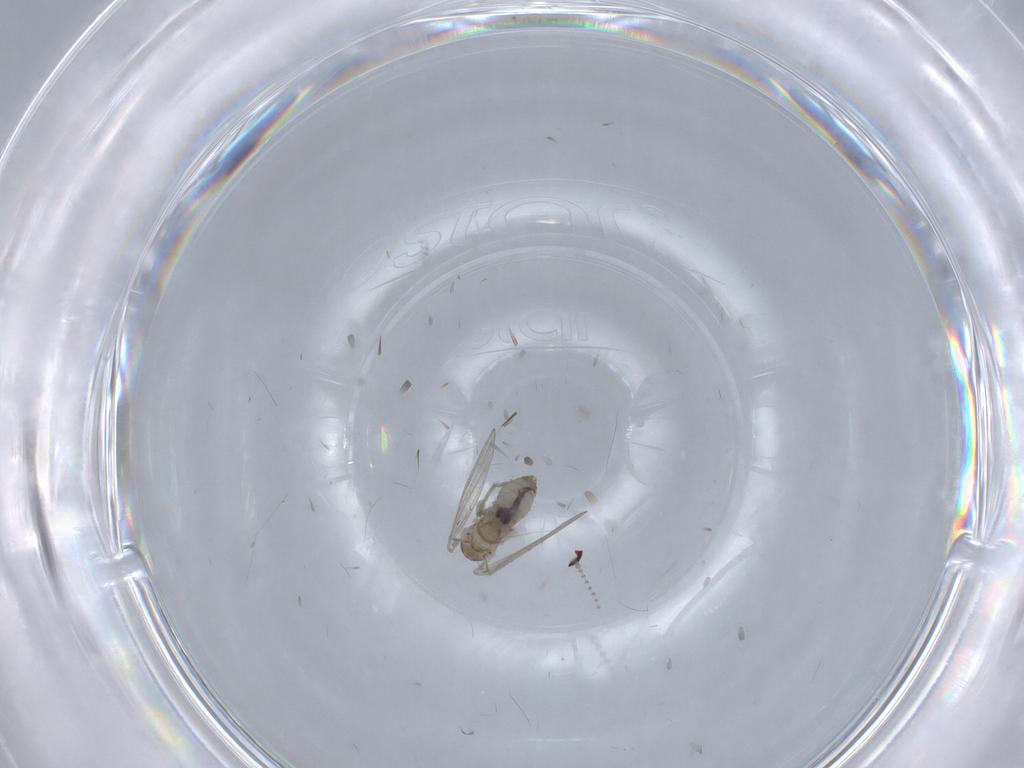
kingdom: Animalia
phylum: Arthropoda
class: Insecta
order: Diptera
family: Psychodidae
